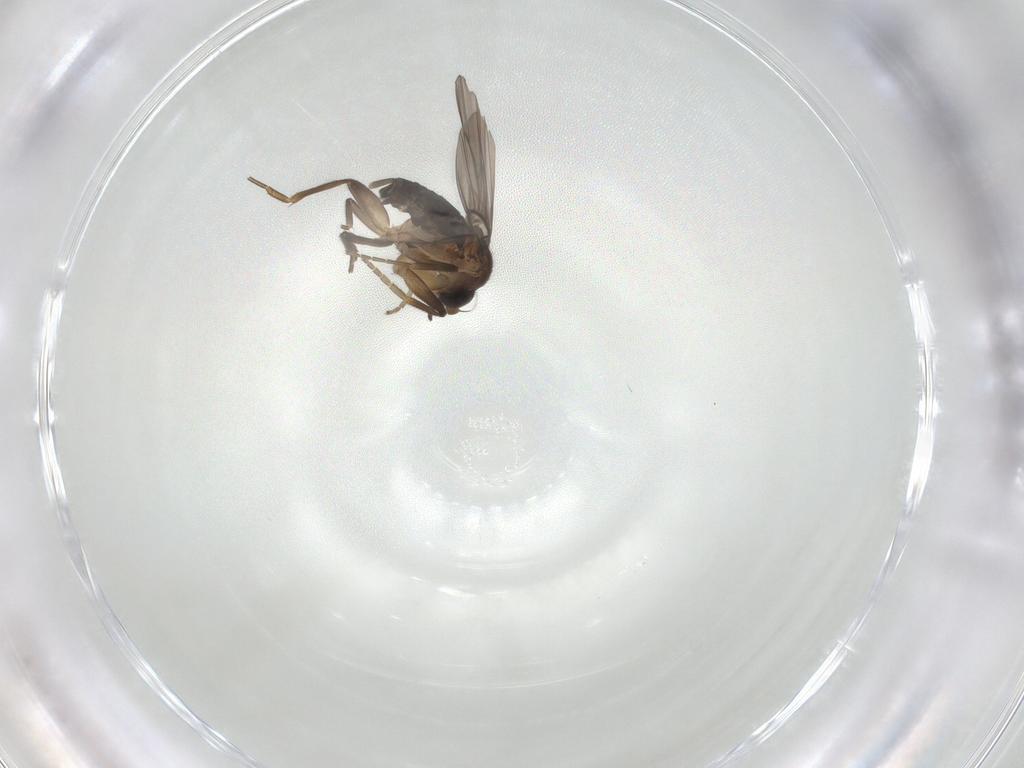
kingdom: Animalia
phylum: Arthropoda
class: Insecta
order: Diptera
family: Phoridae
